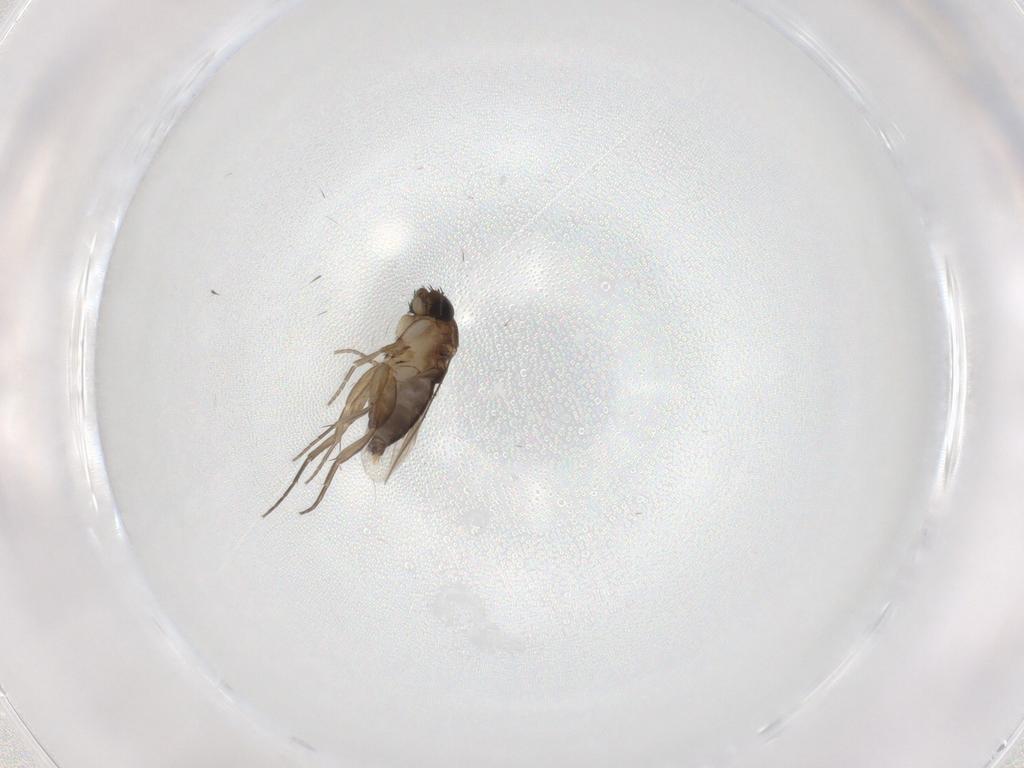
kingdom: Animalia
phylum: Arthropoda
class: Insecta
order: Diptera
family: Phoridae
